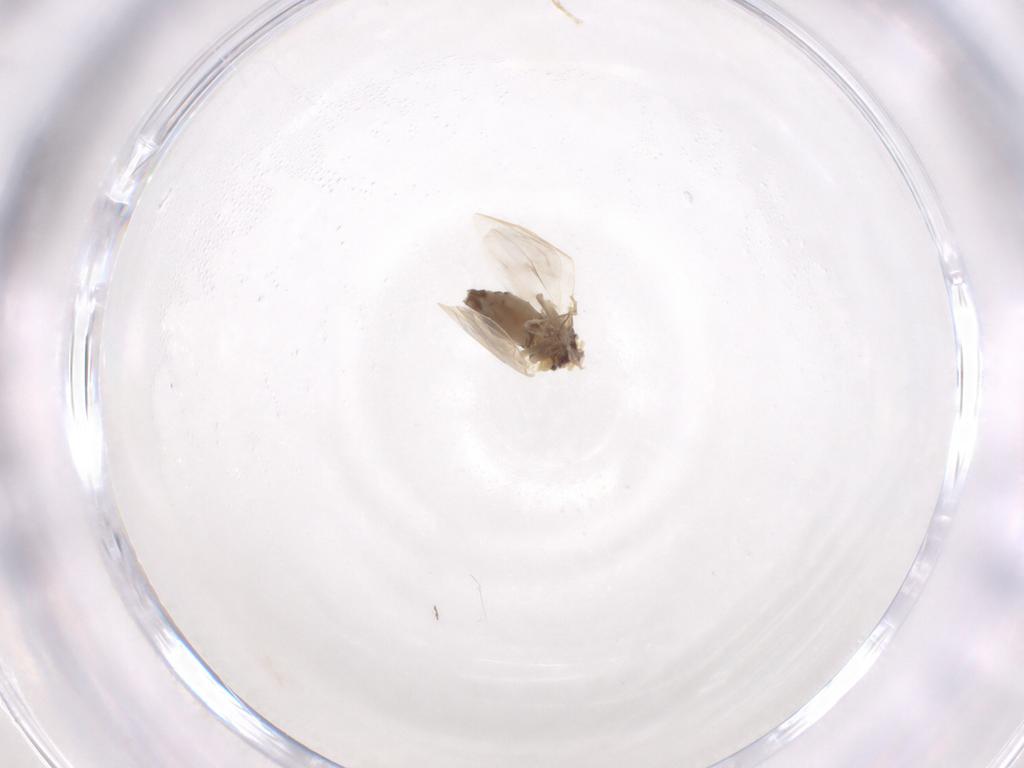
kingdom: Animalia
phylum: Arthropoda
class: Insecta
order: Hemiptera
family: Aleyrodidae
